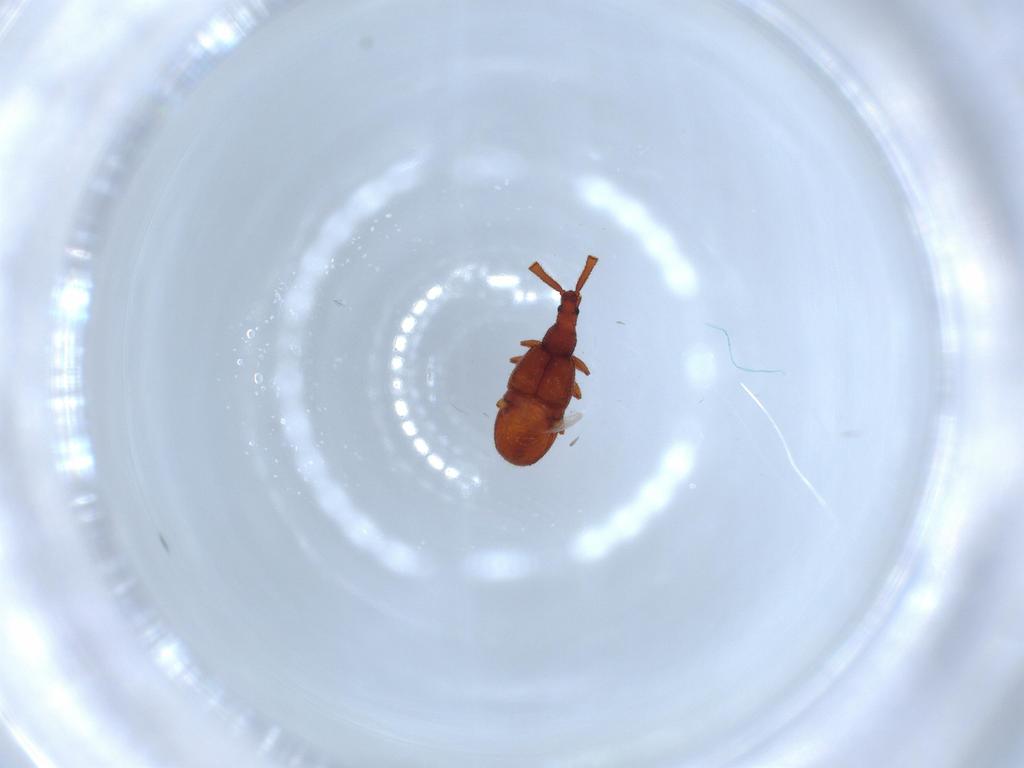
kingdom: Animalia
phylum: Arthropoda
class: Insecta
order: Coleoptera
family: Staphylinidae
